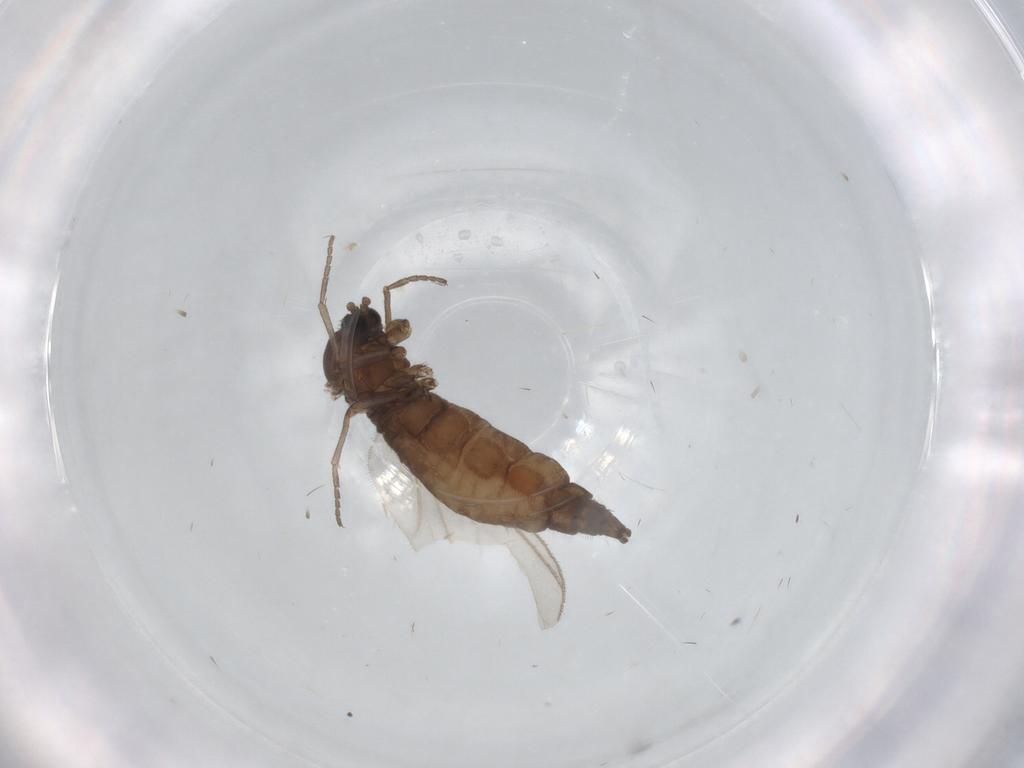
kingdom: Animalia
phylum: Arthropoda
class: Insecta
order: Diptera
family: Sciaridae
